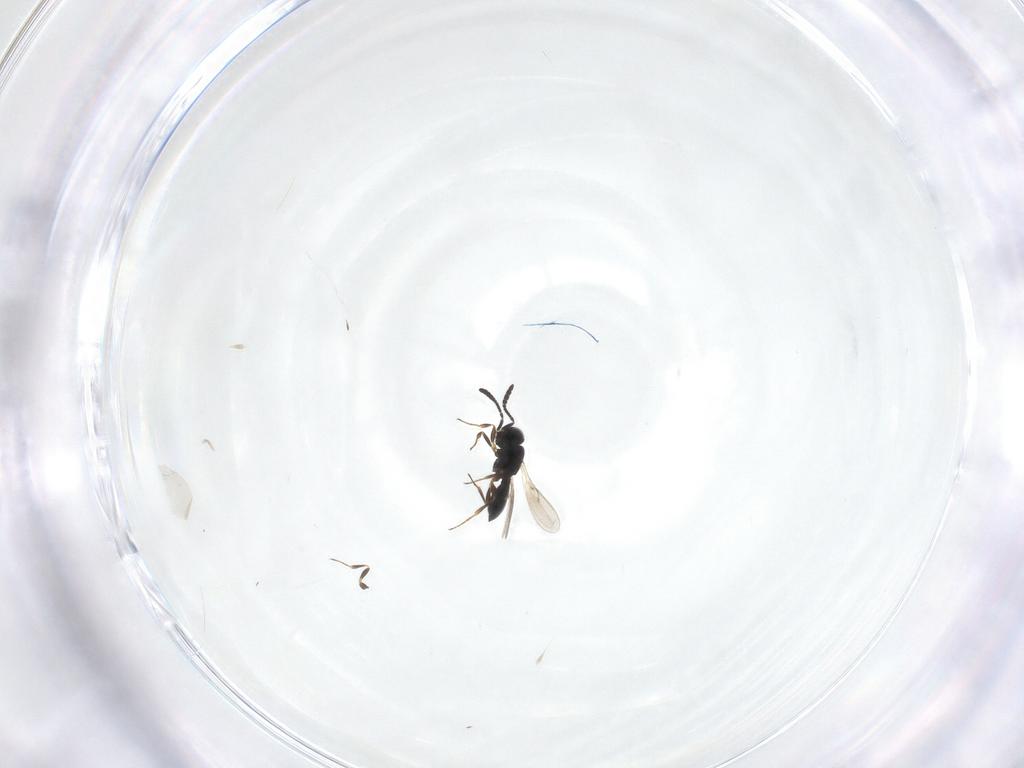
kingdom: Animalia
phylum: Arthropoda
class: Insecta
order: Hymenoptera
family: Scelionidae
